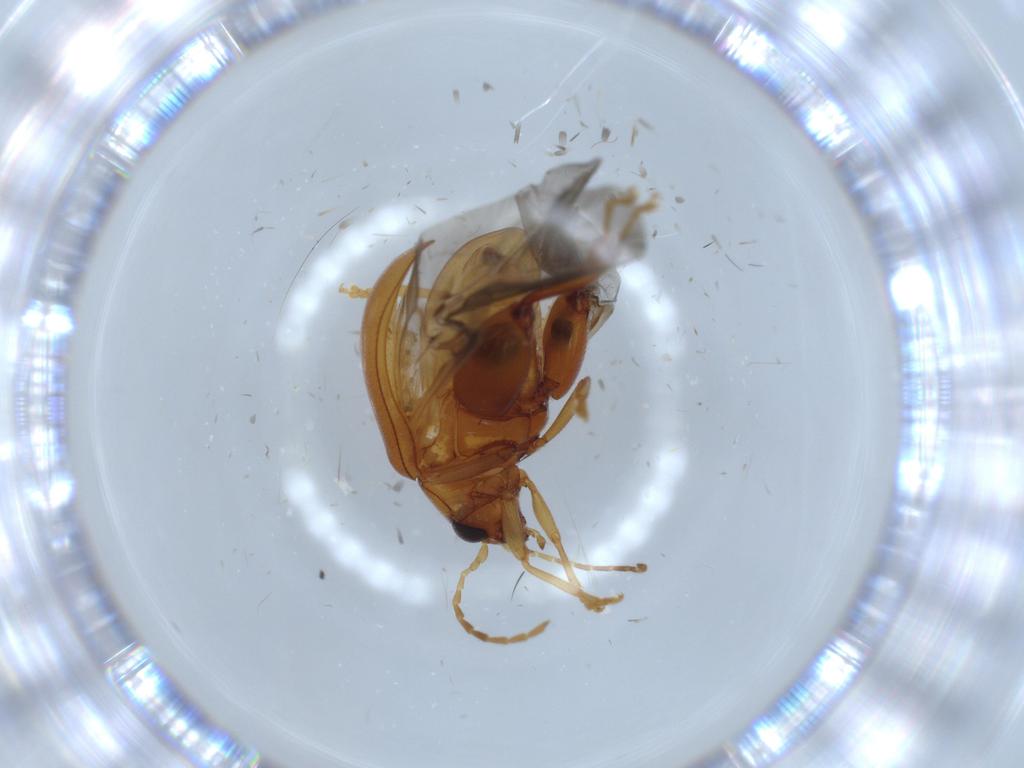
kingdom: Animalia
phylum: Arthropoda
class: Insecta
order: Coleoptera
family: Chrysomelidae
